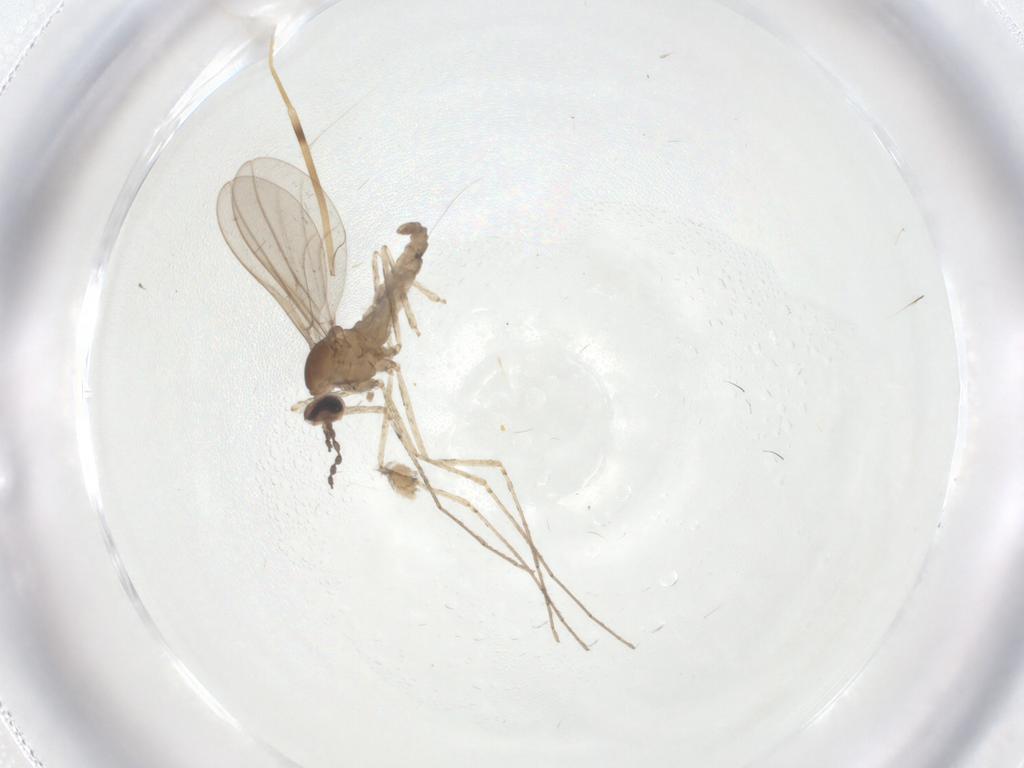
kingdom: Animalia
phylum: Arthropoda
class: Insecta
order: Diptera
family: Cecidomyiidae
